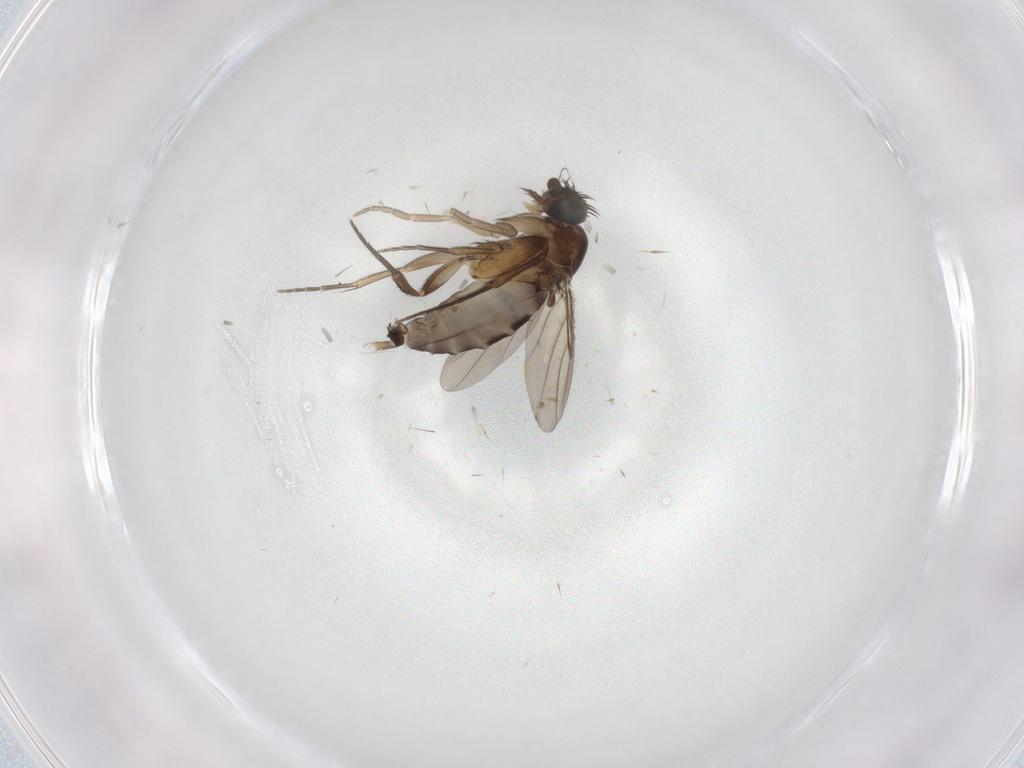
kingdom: Animalia
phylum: Arthropoda
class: Insecta
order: Diptera
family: Phoridae
